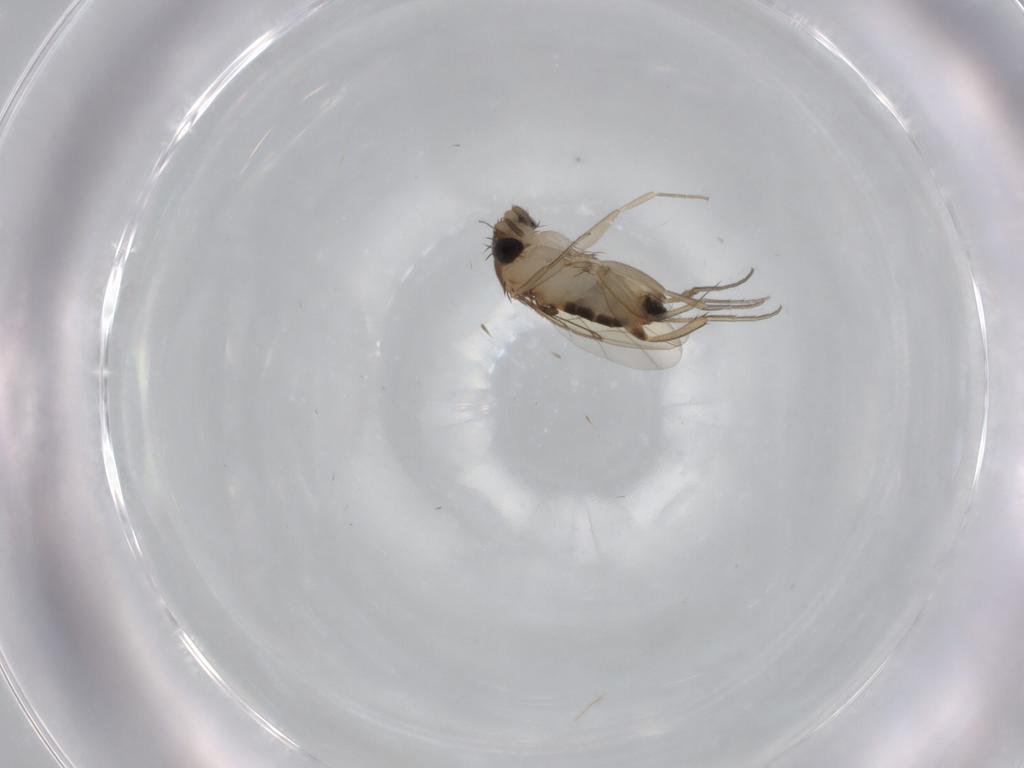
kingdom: Animalia
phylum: Arthropoda
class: Insecta
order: Diptera
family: Phoridae
